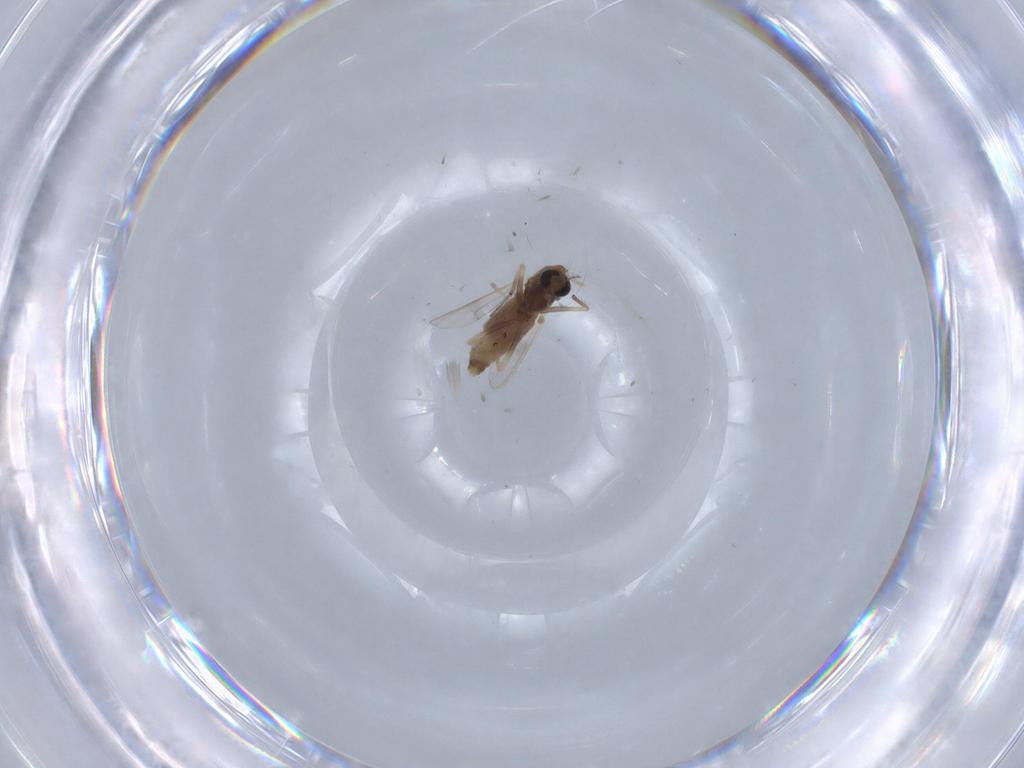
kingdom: Animalia
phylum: Arthropoda
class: Insecta
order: Diptera
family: Chironomidae
